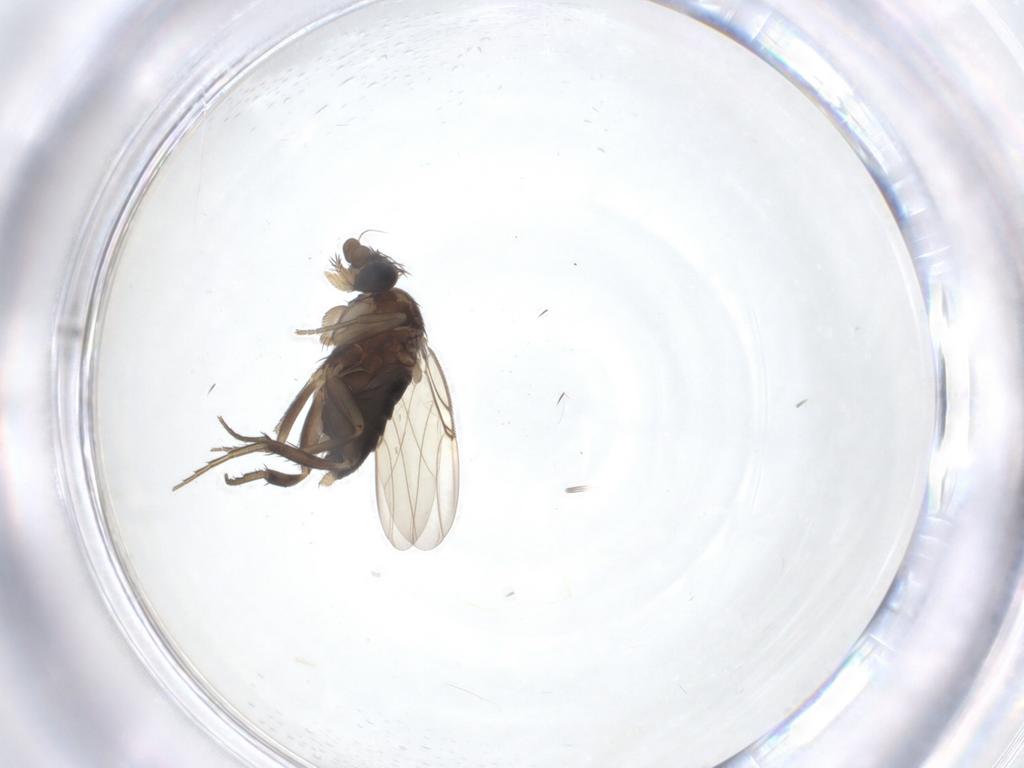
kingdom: Animalia
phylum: Arthropoda
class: Insecta
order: Diptera
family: Phoridae
